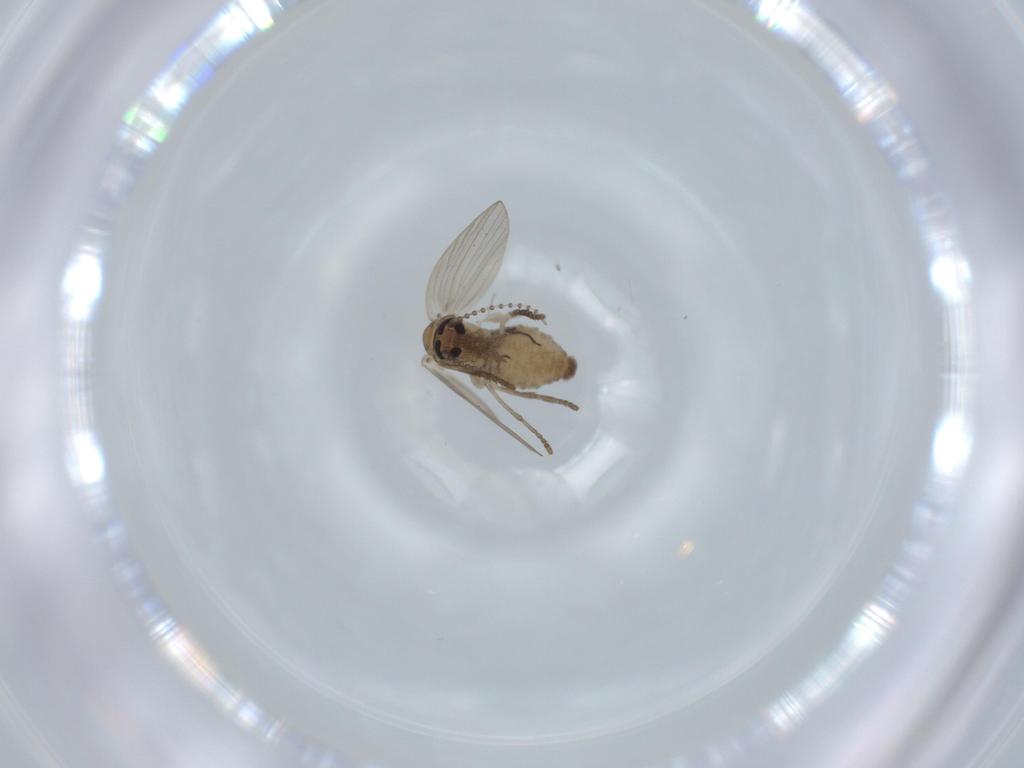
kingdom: Animalia
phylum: Arthropoda
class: Insecta
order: Diptera
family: Psychodidae
